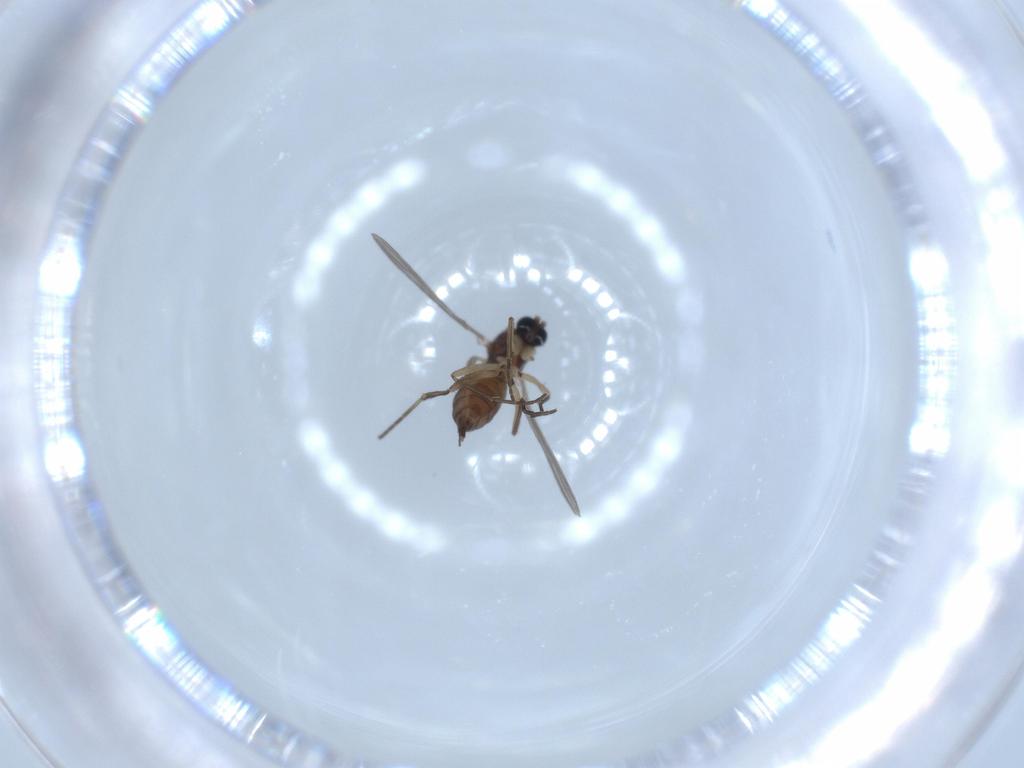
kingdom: Animalia
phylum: Arthropoda
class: Insecta
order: Diptera
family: Sciaridae
